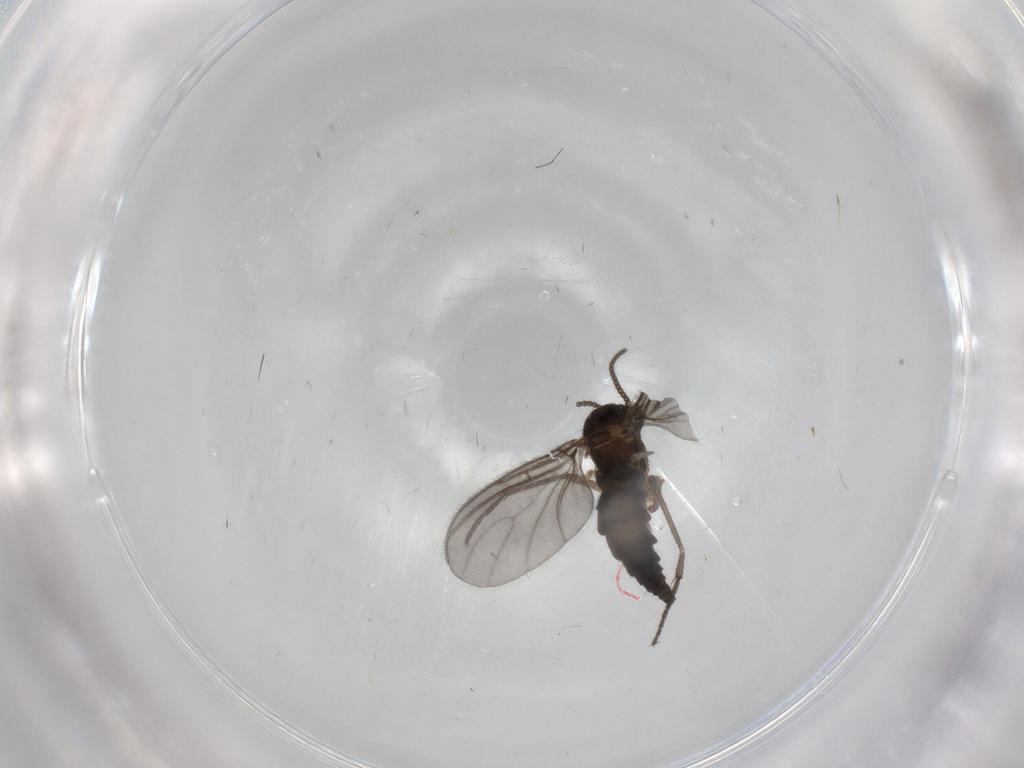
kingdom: Animalia
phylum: Arthropoda
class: Insecta
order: Diptera
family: Sciaridae
